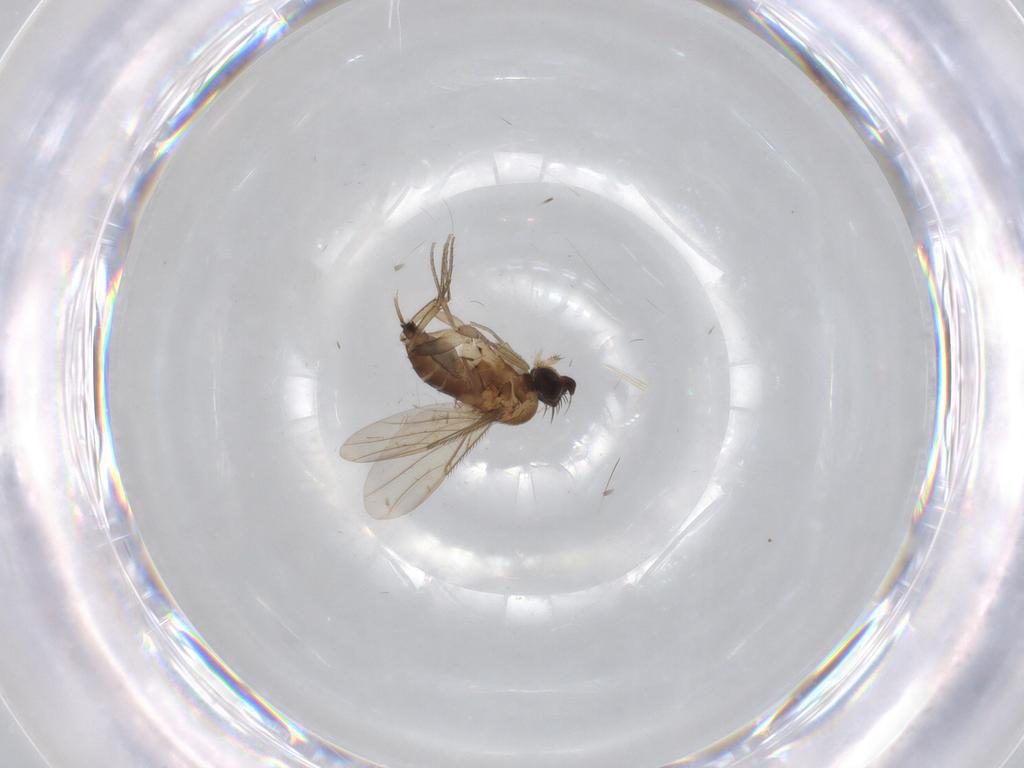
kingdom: Animalia
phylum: Arthropoda
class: Insecta
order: Diptera
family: Phoridae
